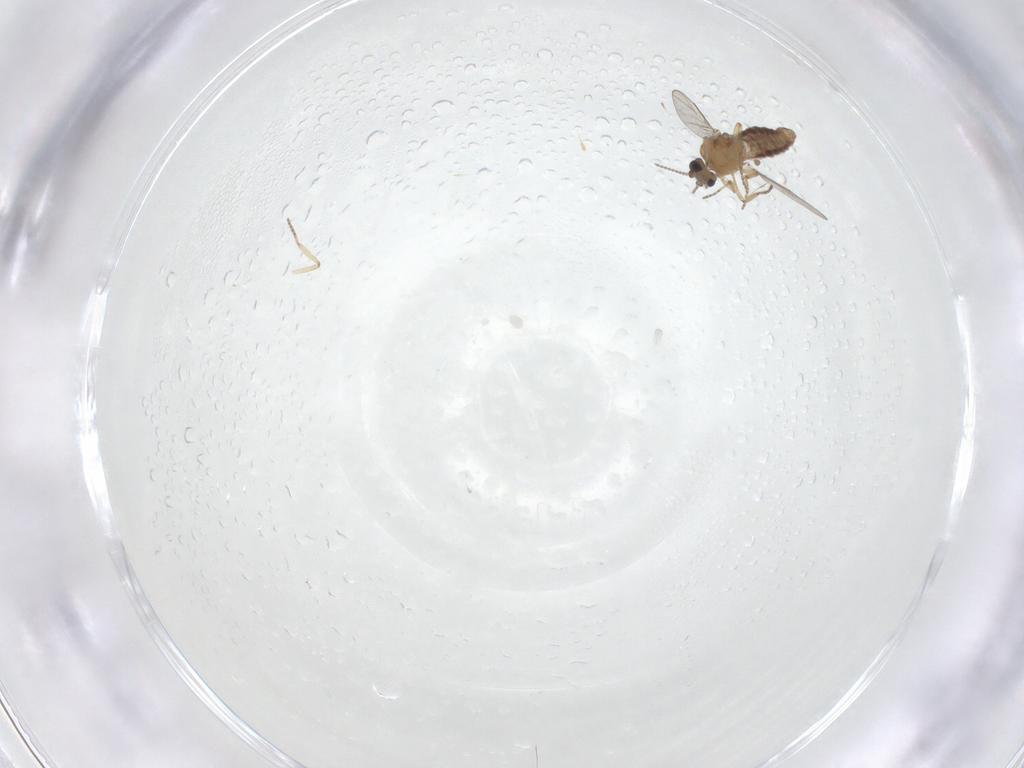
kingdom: Animalia
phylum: Arthropoda
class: Insecta
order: Diptera
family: Ceratopogonidae
